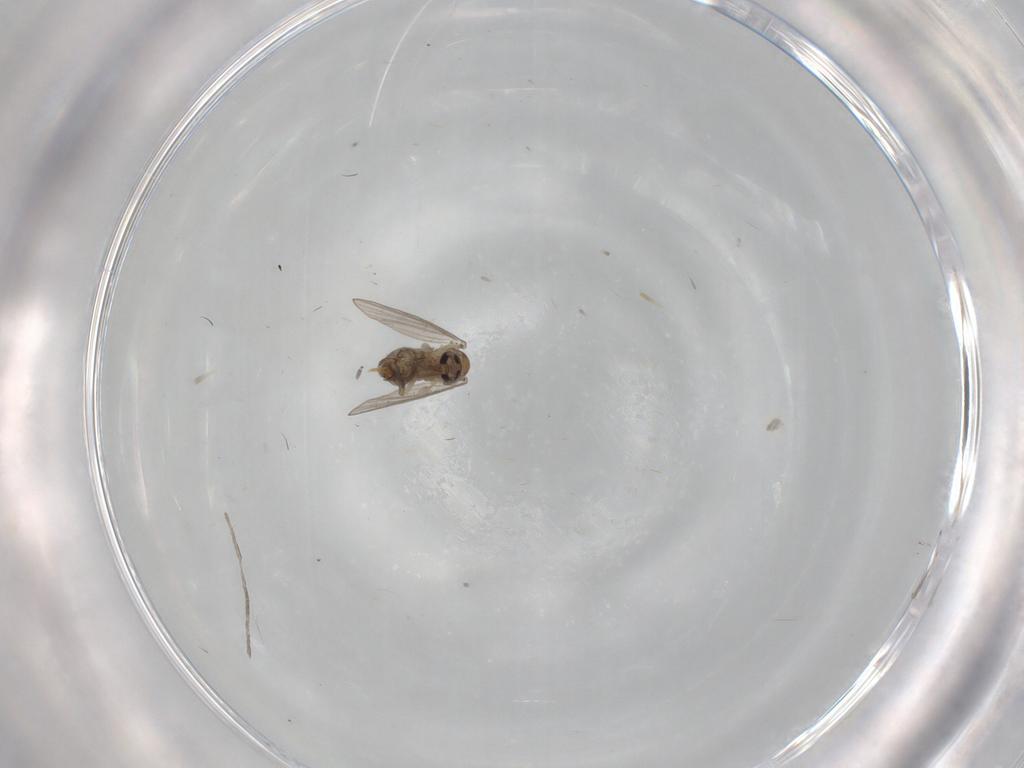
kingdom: Animalia
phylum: Arthropoda
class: Insecta
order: Diptera
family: Psychodidae
